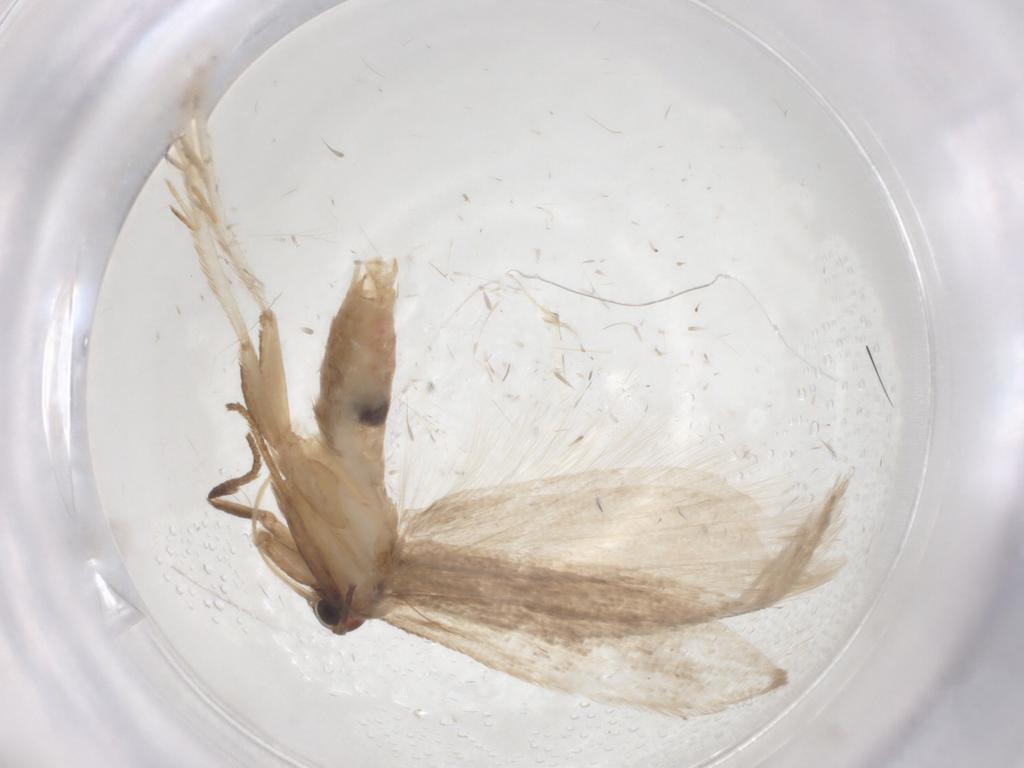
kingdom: Animalia
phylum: Arthropoda
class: Insecta
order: Lepidoptera
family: Gelechiidae
